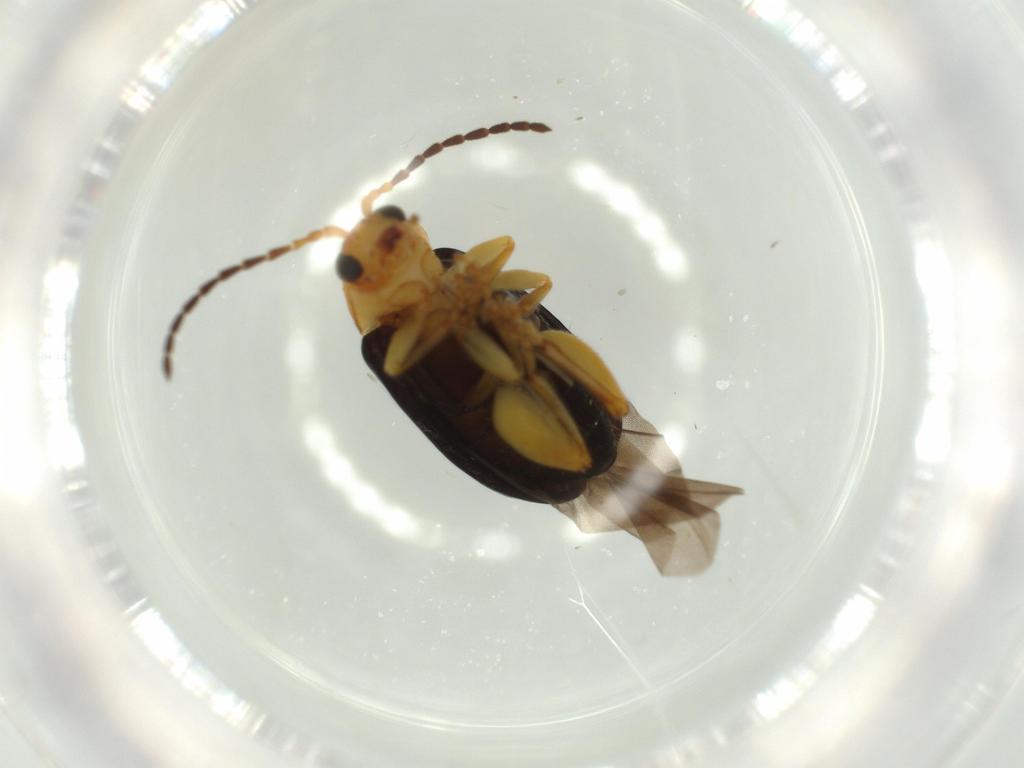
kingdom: Animalia
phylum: Arthropoda
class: Insecta
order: Coleoptera
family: Chrysomelidae
